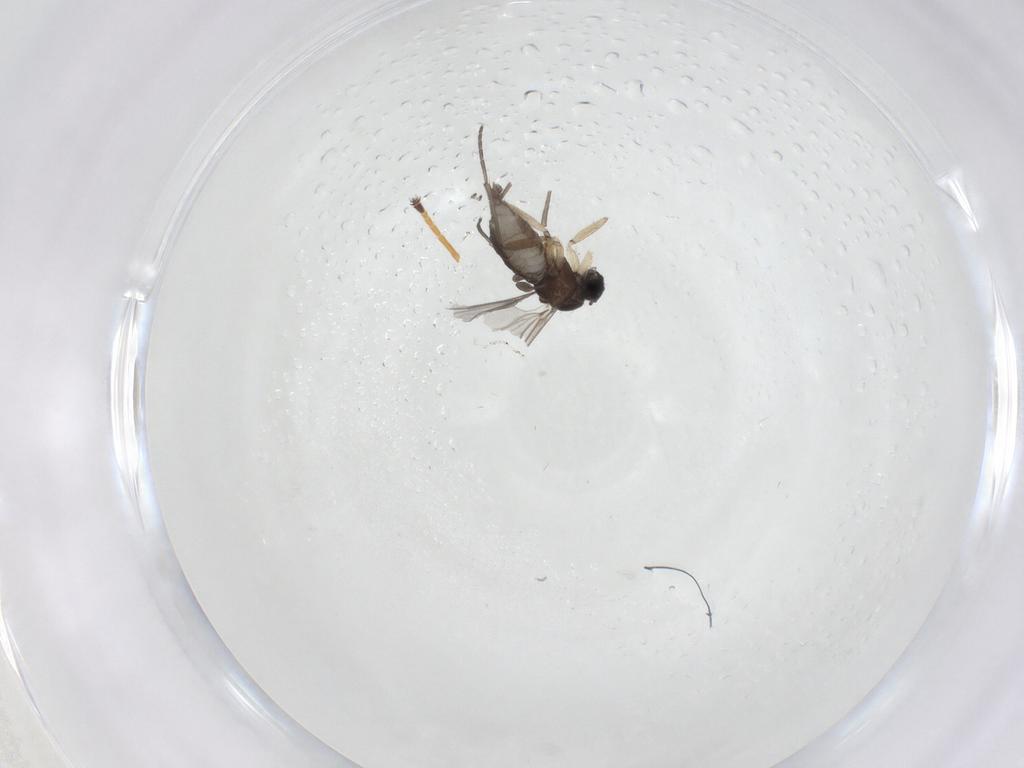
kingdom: Animalia
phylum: Arthropoda
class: Insecta
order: Diptera
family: Sciaridae
